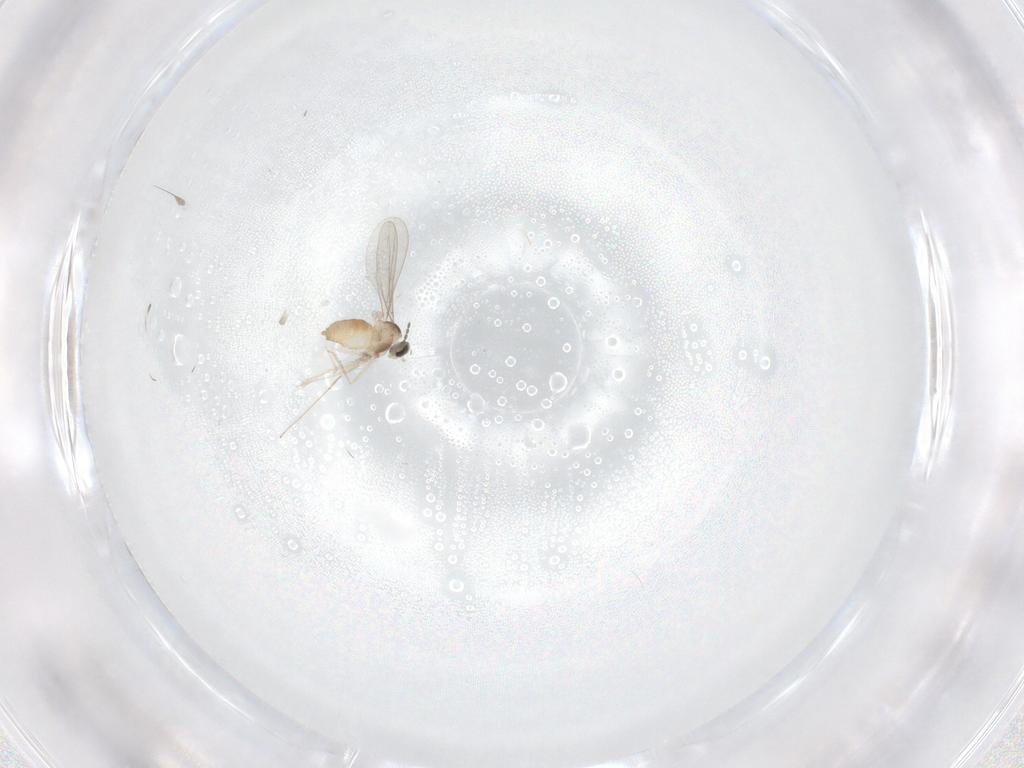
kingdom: Animalia
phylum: Arthropoda
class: Insecta
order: Diptera
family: Cecidomyiidae
